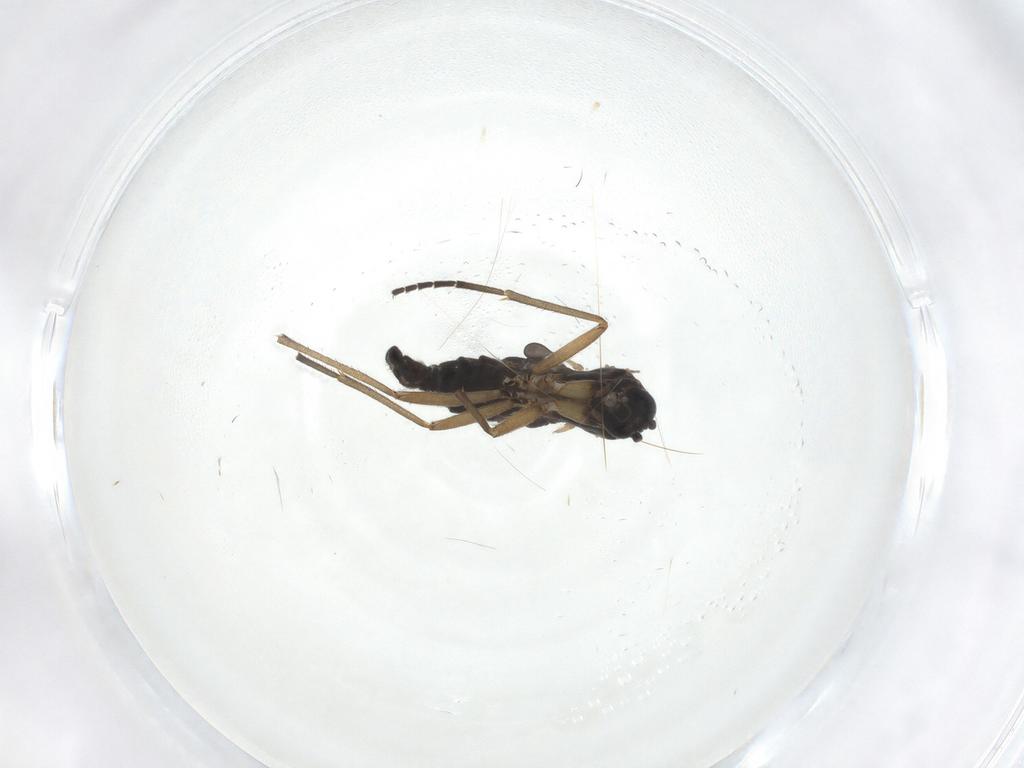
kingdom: Animalia
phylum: Arthropoda
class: Insecta
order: Diptera
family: Sciaridae
